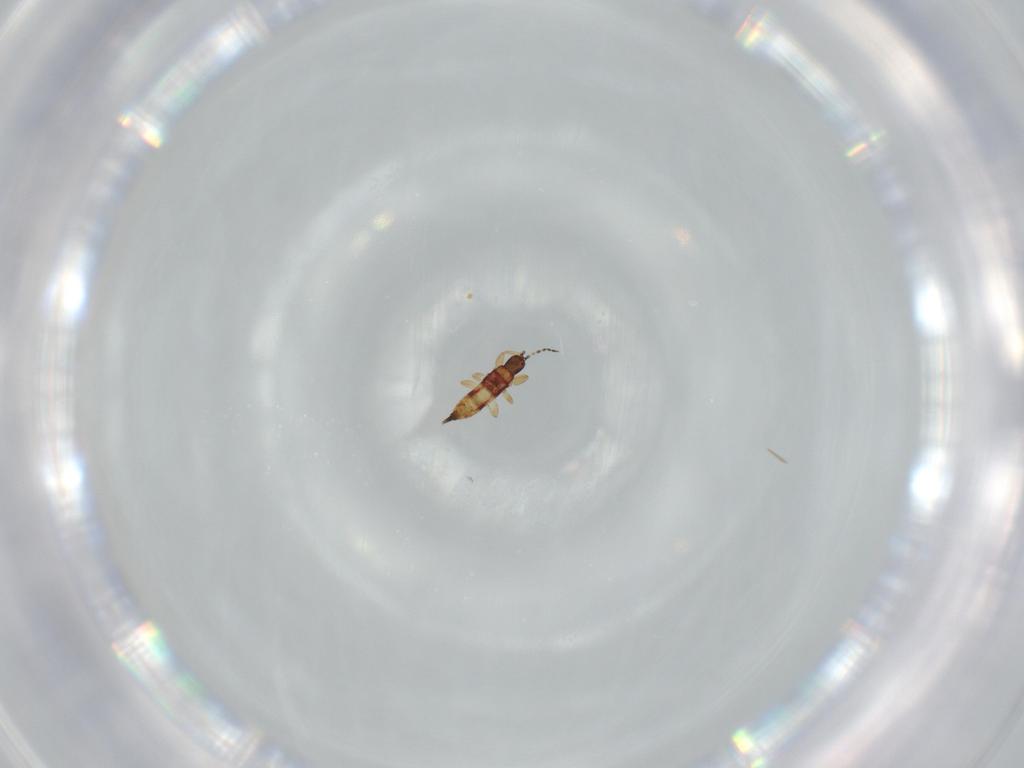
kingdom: Animalia
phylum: Arthropoda
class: Insecta
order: Thysanoptera
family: Phlaeothripidae
